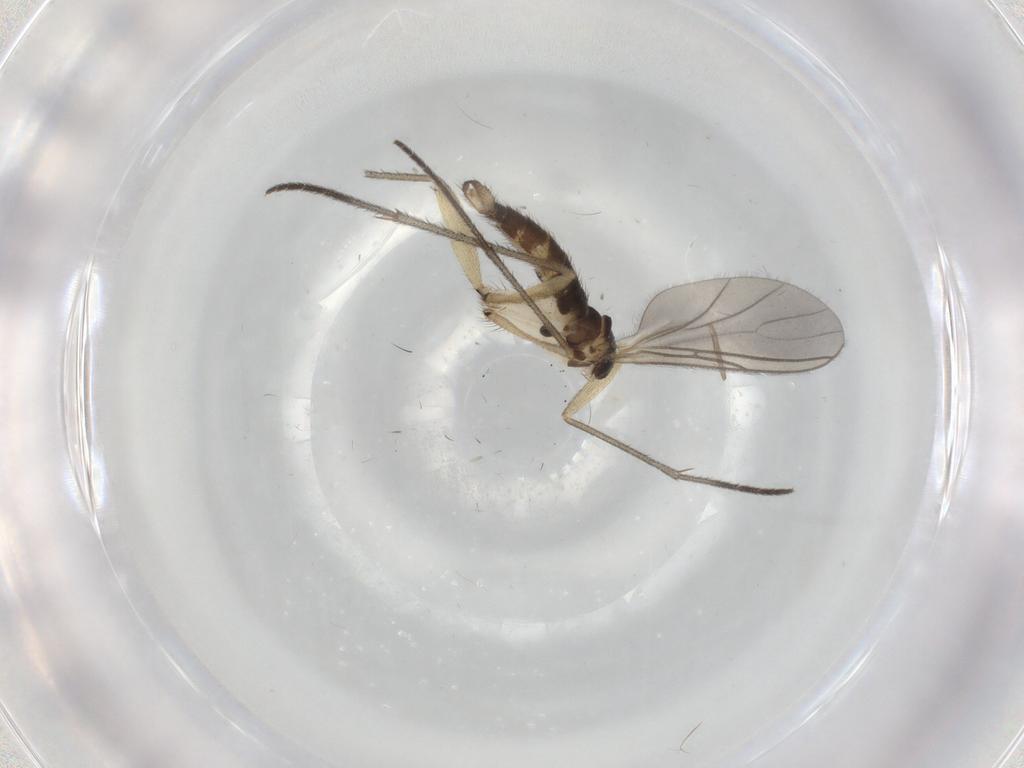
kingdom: Animalia
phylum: Arthropoda
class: Insecta
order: Diptera
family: Sciaridae
